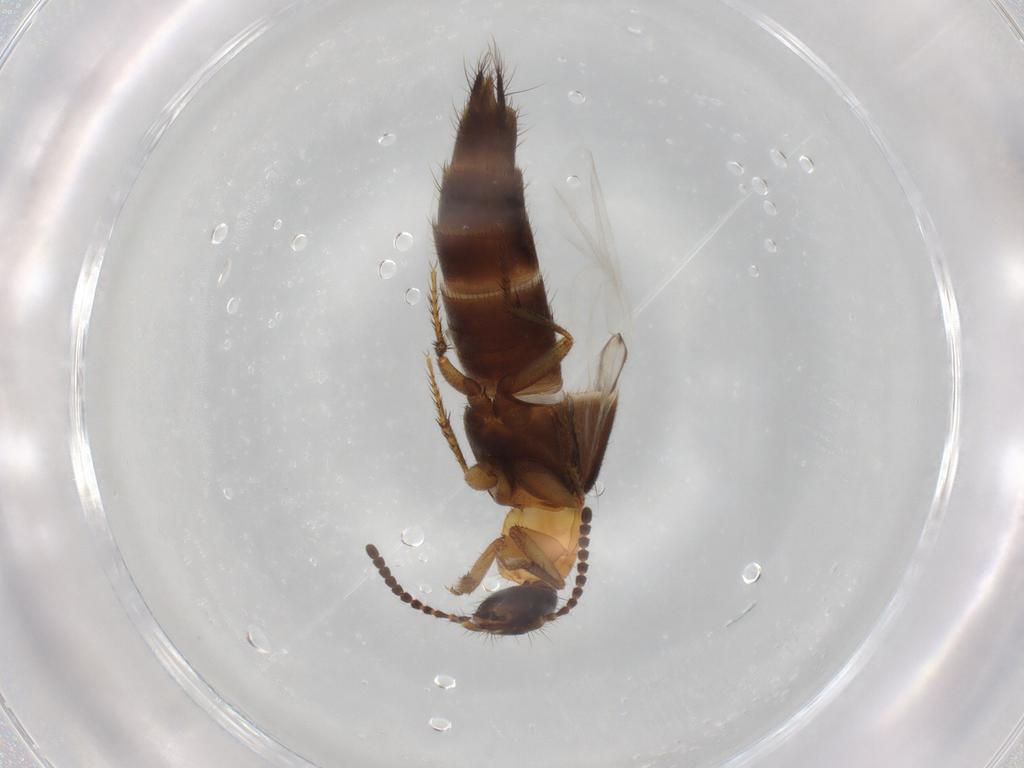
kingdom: Animalia
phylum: Arthropoda
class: Insecta
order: Coleoptera
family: Staphylinidae
